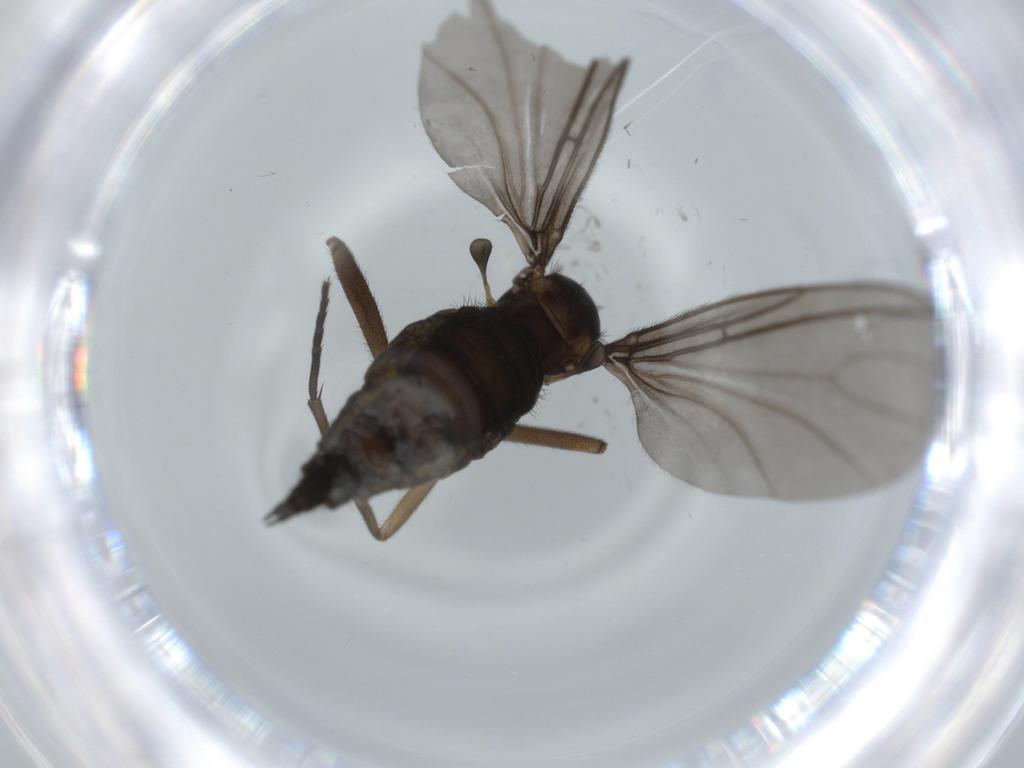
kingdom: Animalia
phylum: Arthropoda
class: Insecta
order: Diptera
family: Sciaridae
